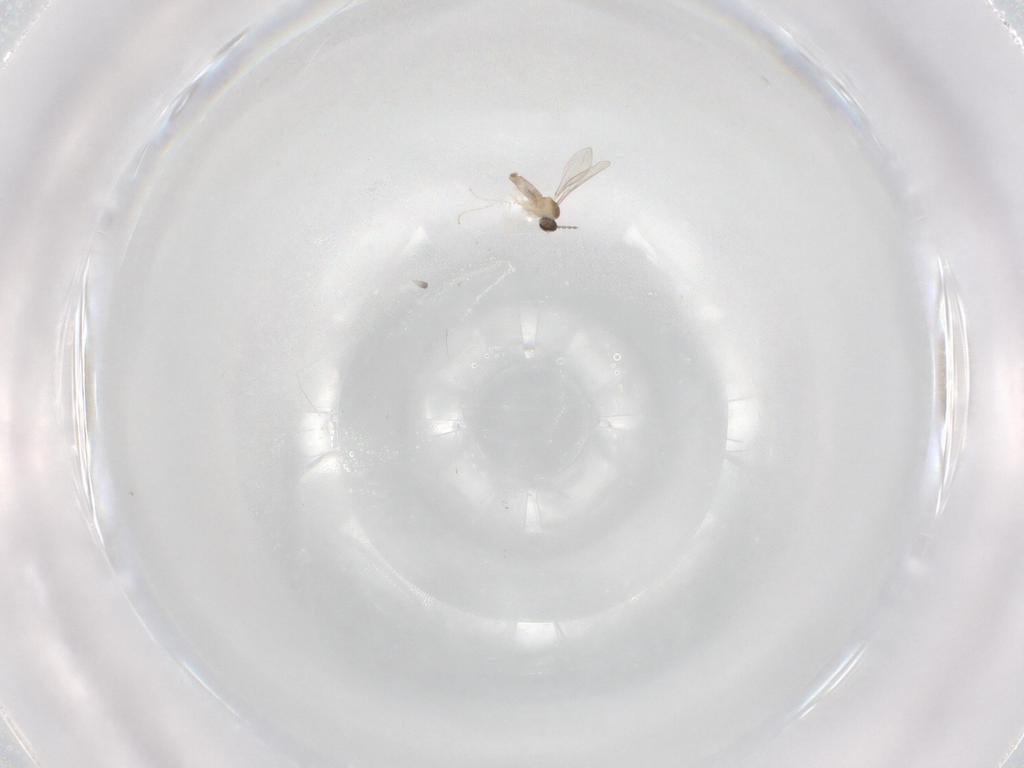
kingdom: Animalia
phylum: Arthropoda
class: Insecta
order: Diptera
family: Cecidomyiidae
